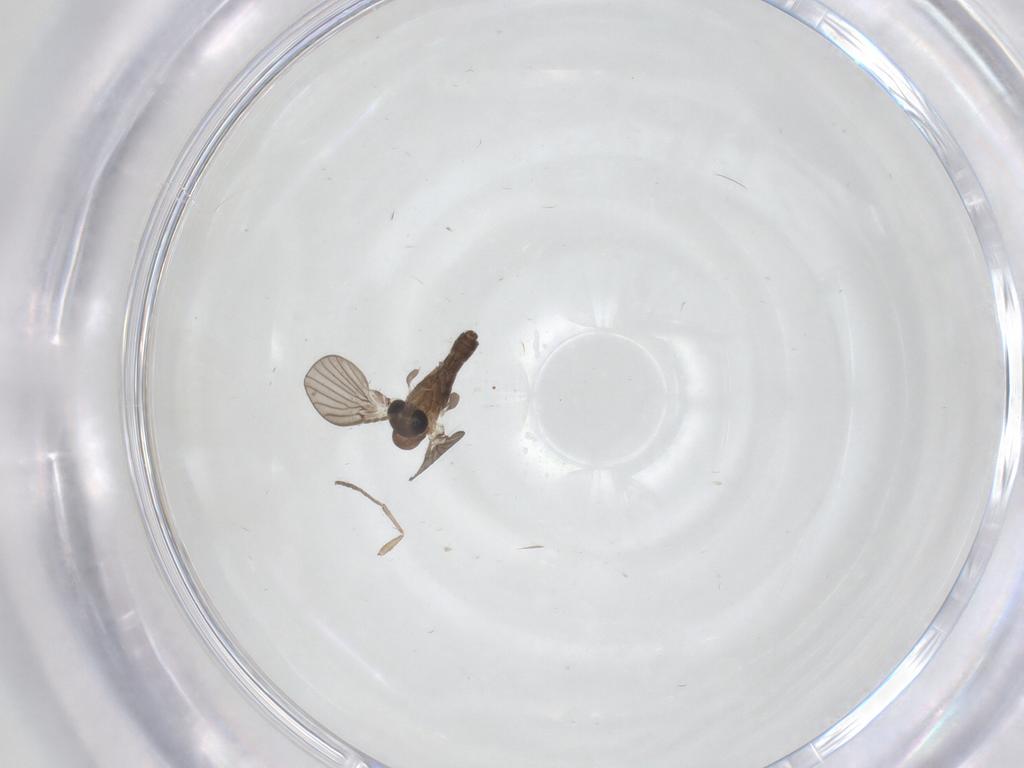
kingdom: Animalia
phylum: Arthropoda
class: Insecta
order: Diptera
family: Psychodidae
